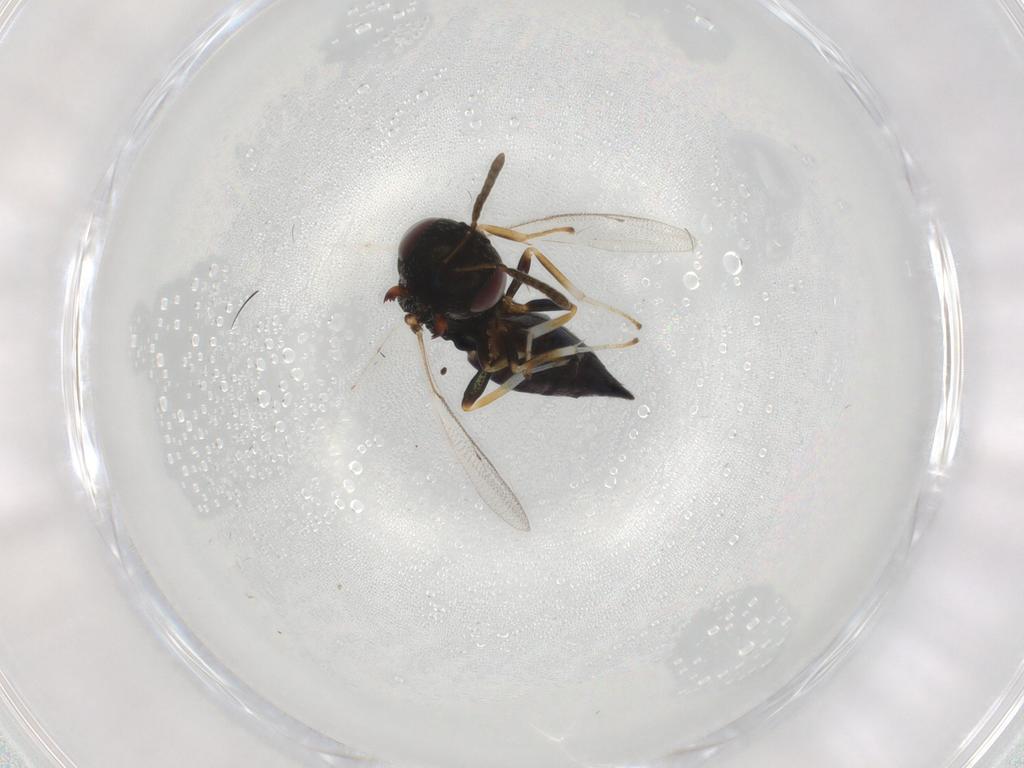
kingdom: Animalia
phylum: Arthropoda
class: Insecta
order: Hymenoptera
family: Pteromalidae
